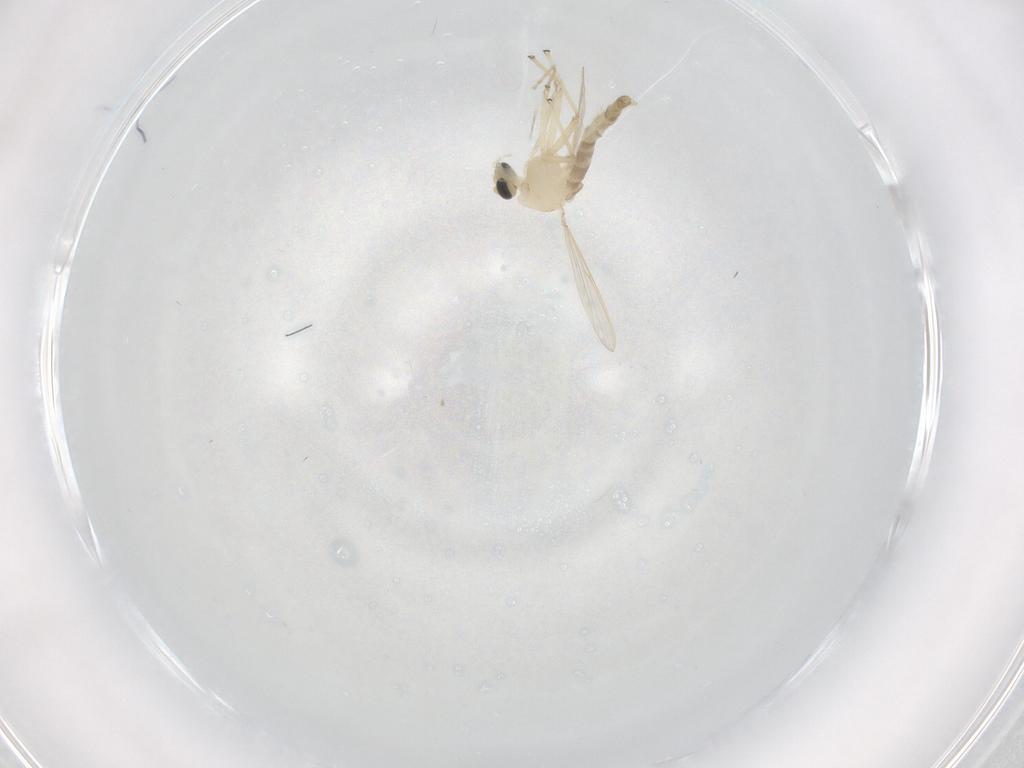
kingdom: Animalia
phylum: Arthropoda
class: Insecta
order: Diptera
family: Chironomidae
